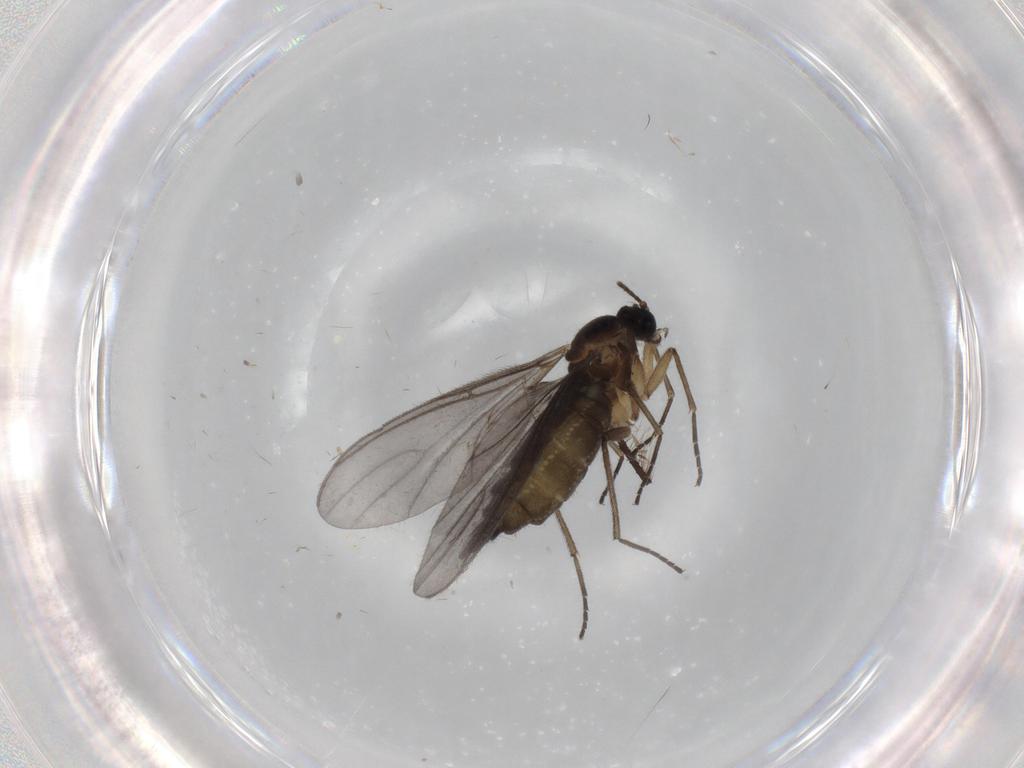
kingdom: Animalia
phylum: Arthropoda
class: Insecta
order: Diptera
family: Sciaridae
